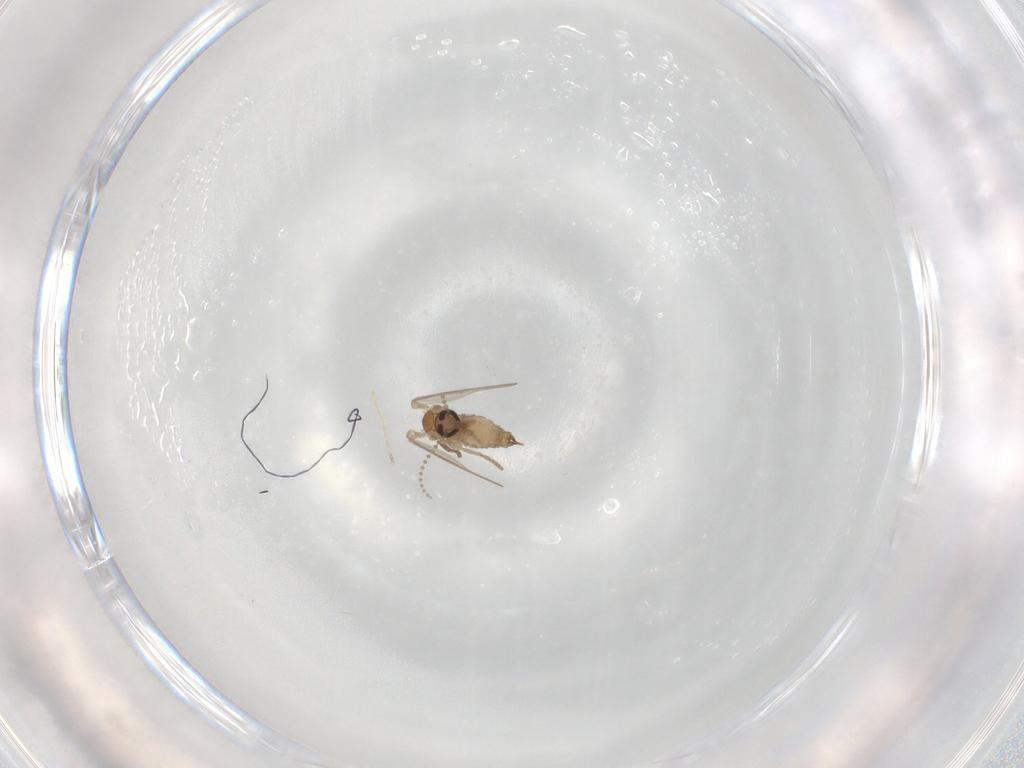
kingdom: Animalia
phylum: Arthropoda
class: Insecta
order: Diptera
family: Psychodidae
